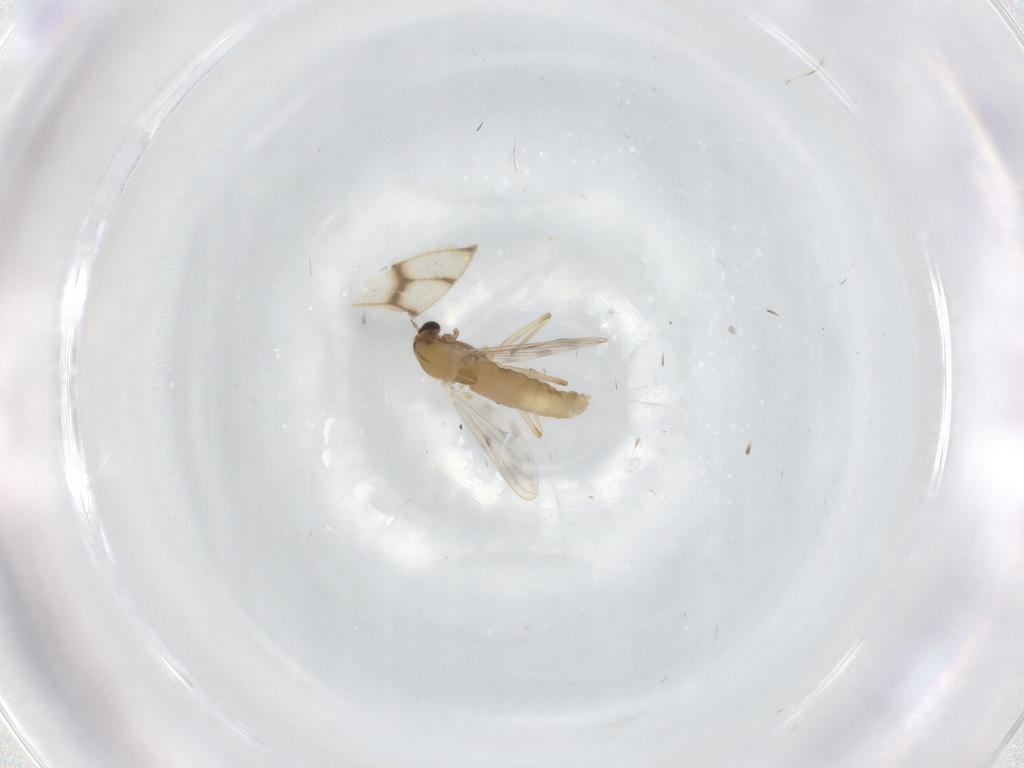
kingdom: Animalia
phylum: Arthropoda
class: Insecta
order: Diptera
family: Chironomidae
